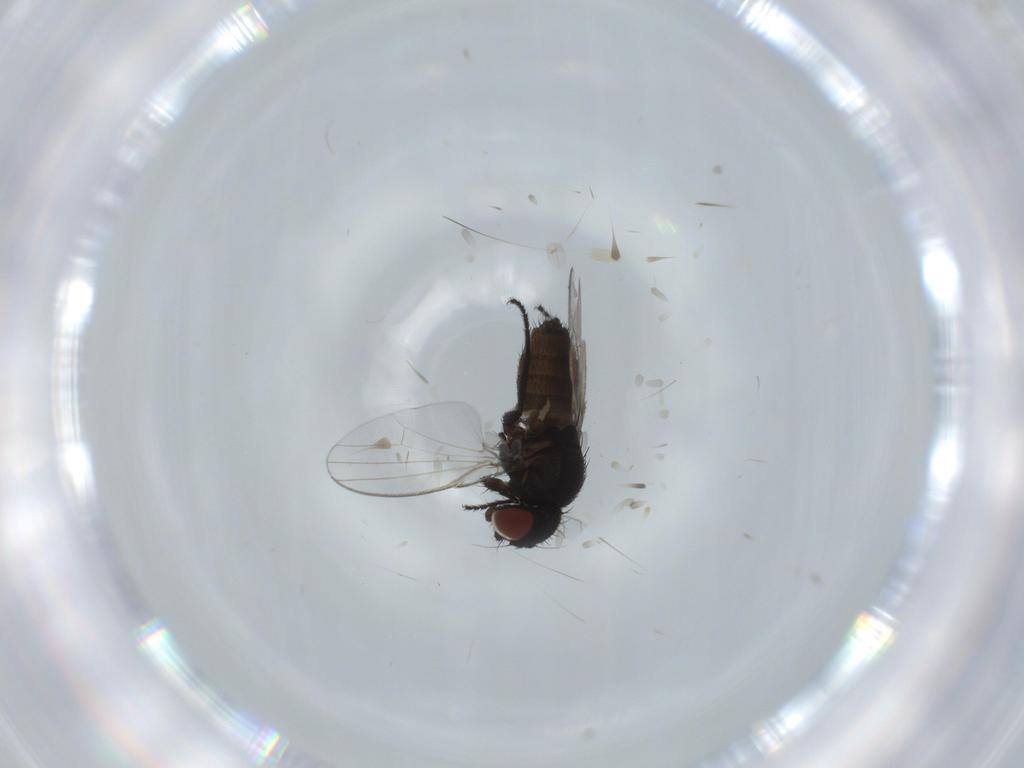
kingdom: Animalia
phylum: Arthropoda
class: Insecta
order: Diptera
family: Milichiidae
